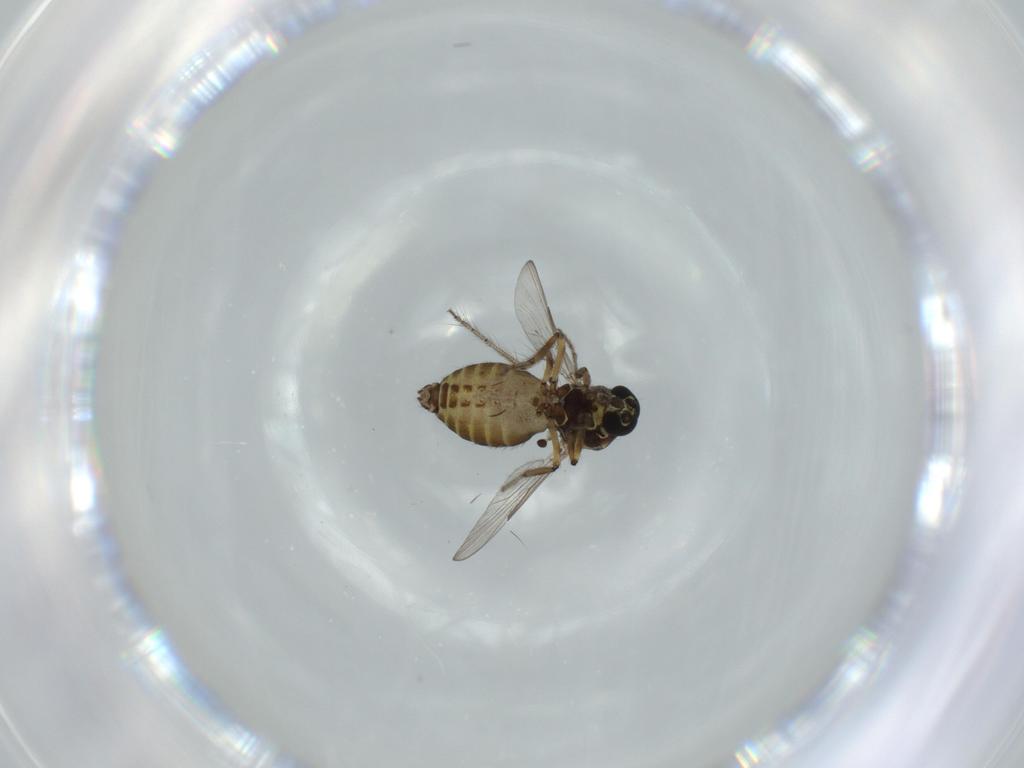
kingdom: Animalia
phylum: Arthropoda
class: Insecta
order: Diptera
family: Ceratopogonidae
